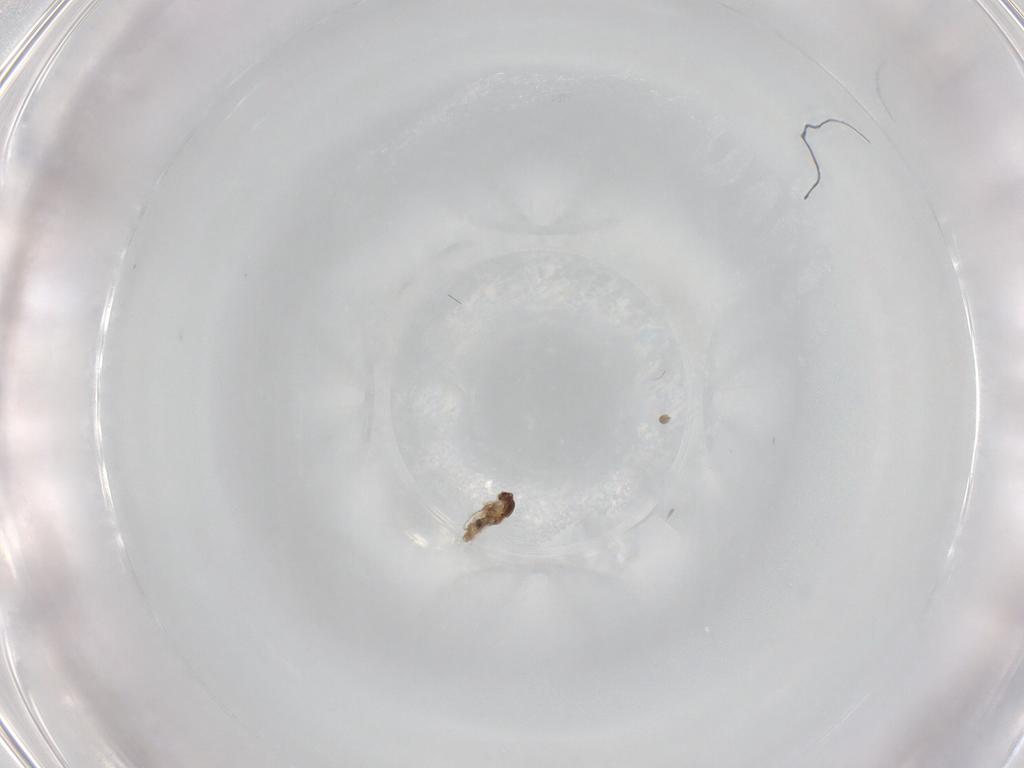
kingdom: Animalia
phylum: Arthropoda
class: Insecta
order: Diptera
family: Cecidomyiidae
